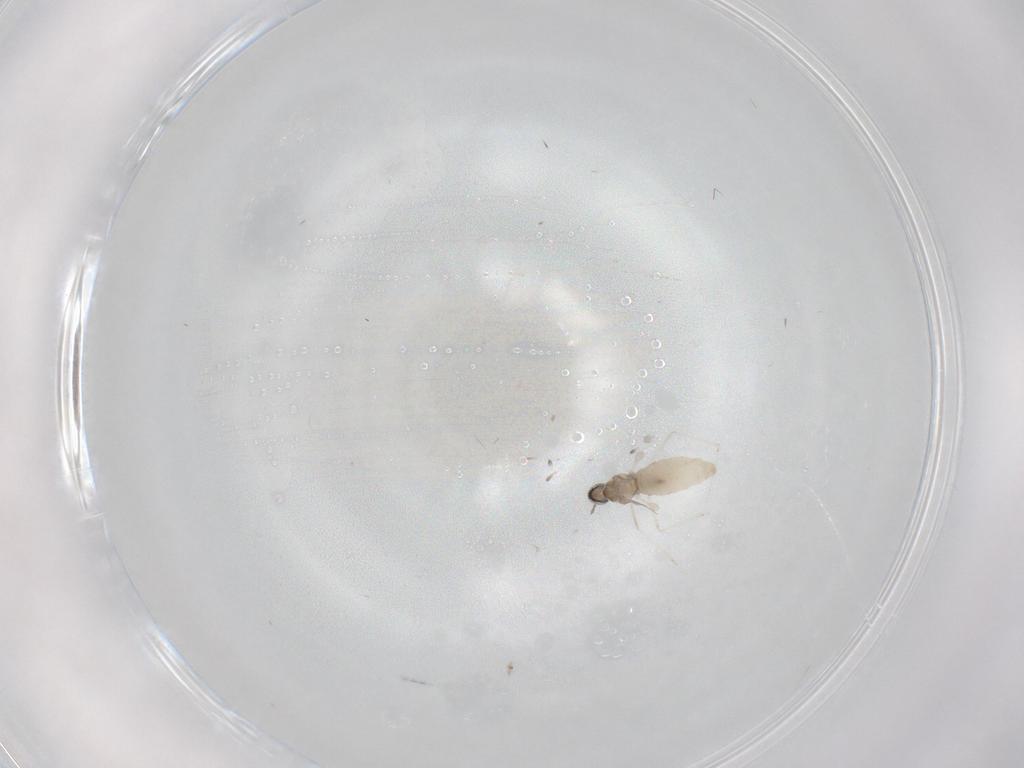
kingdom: Animalia
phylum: Arthropoda
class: Insecta
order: Diptera
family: Cecidomyiidae
